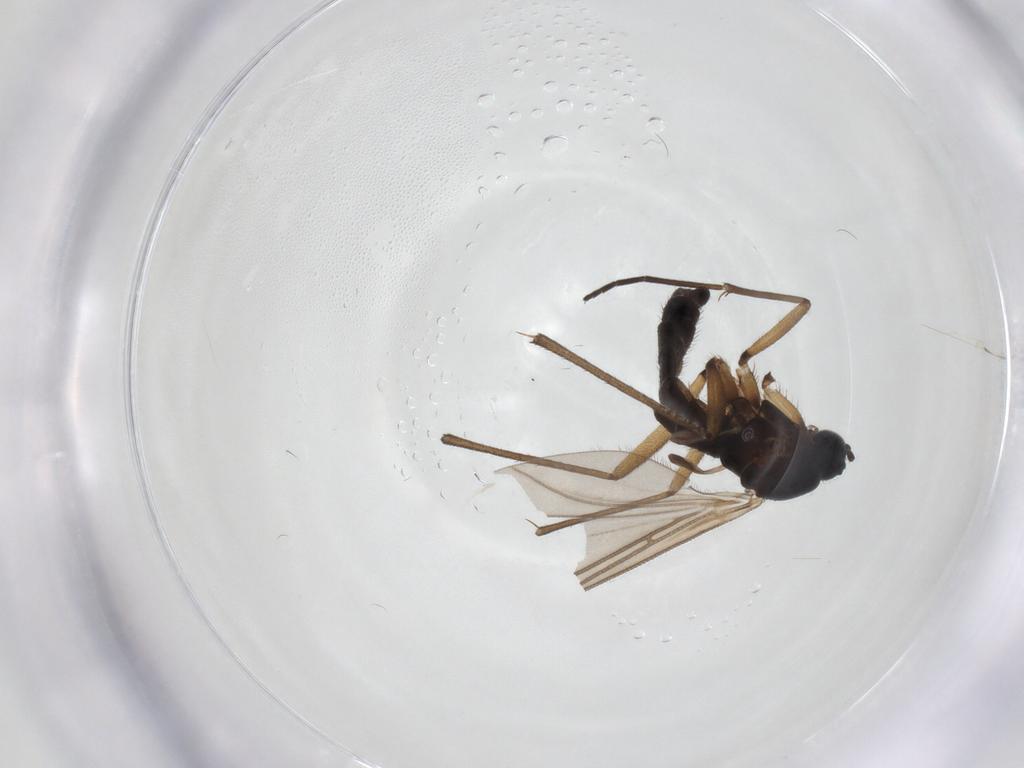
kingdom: Animalia
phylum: Arthropoda
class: Insecta
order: Diptera
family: Sciaridae
